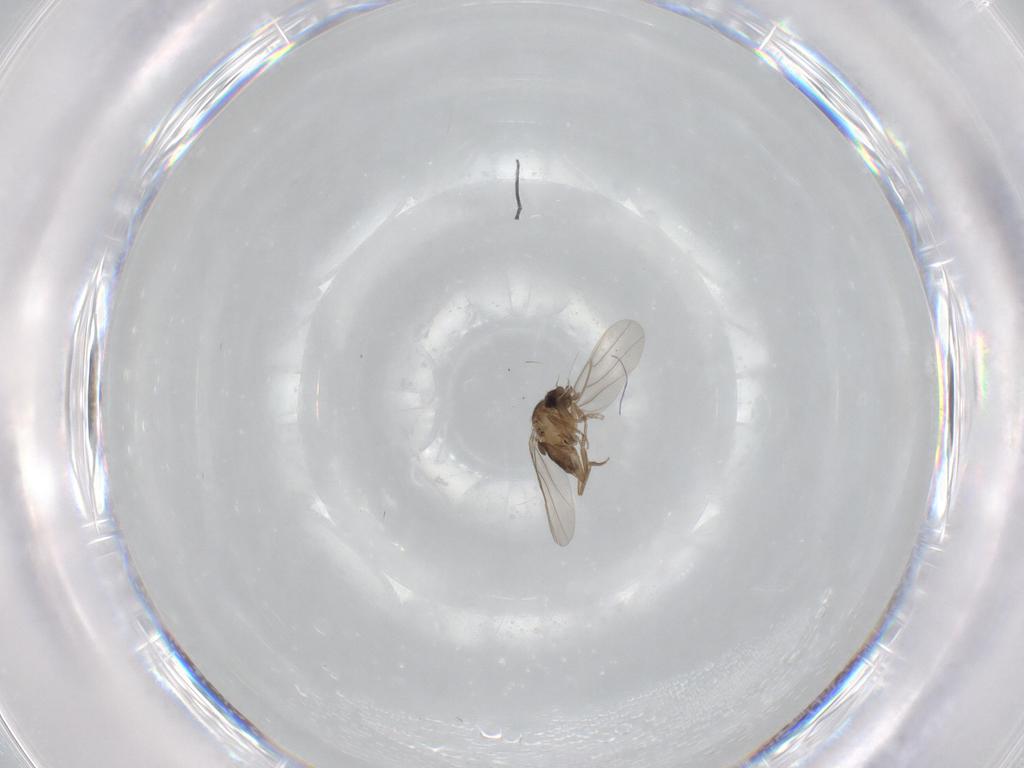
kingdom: Animalia
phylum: Arthropoda
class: Insecta
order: Diptera
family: Phoridae
